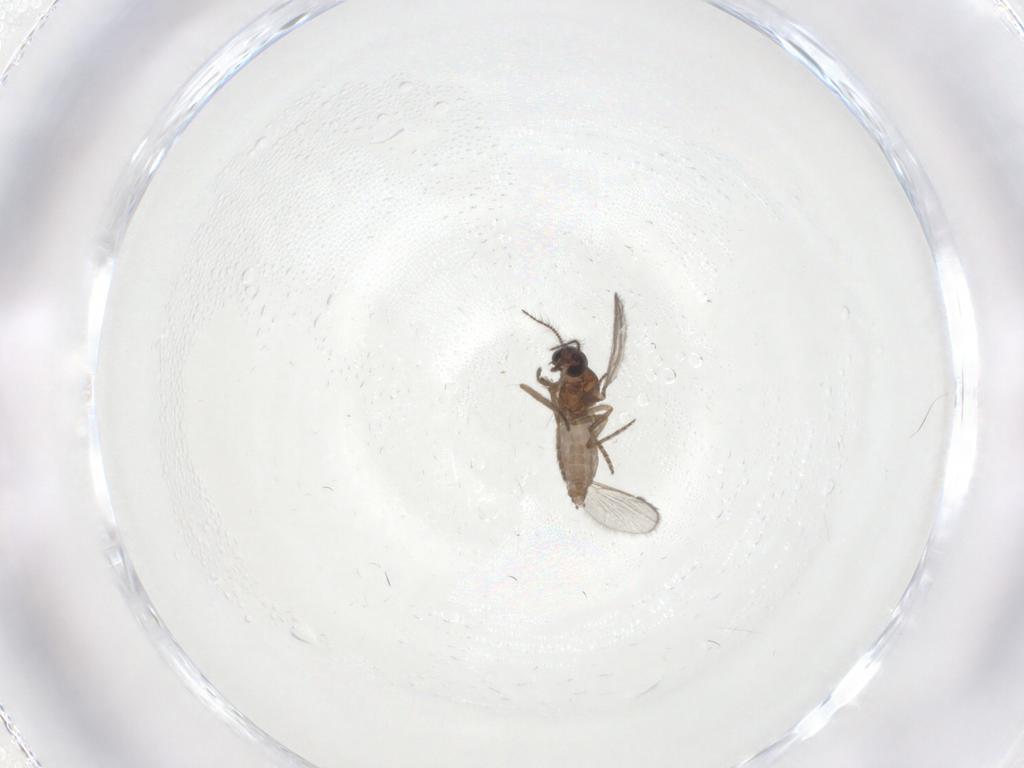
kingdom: Animalia
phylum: Arthropoda
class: Insecta
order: Diptera
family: Ceratopogonidae
